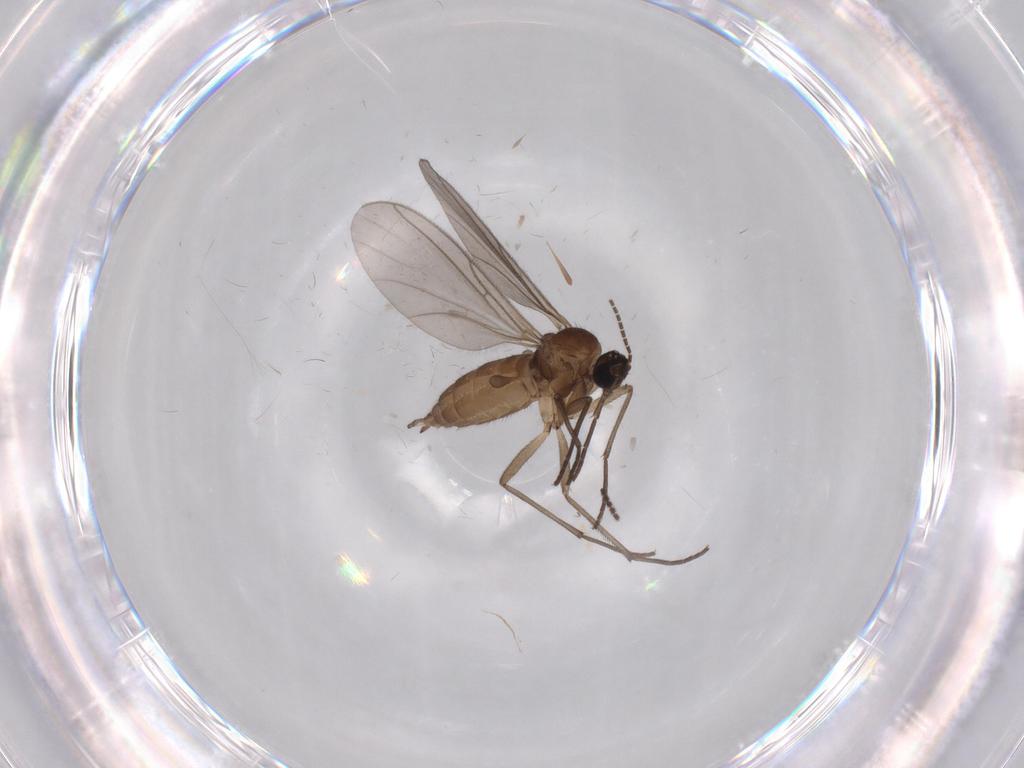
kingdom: Animalia
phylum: Arthropoda
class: Insecta
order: Diptera
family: Sciaridae
